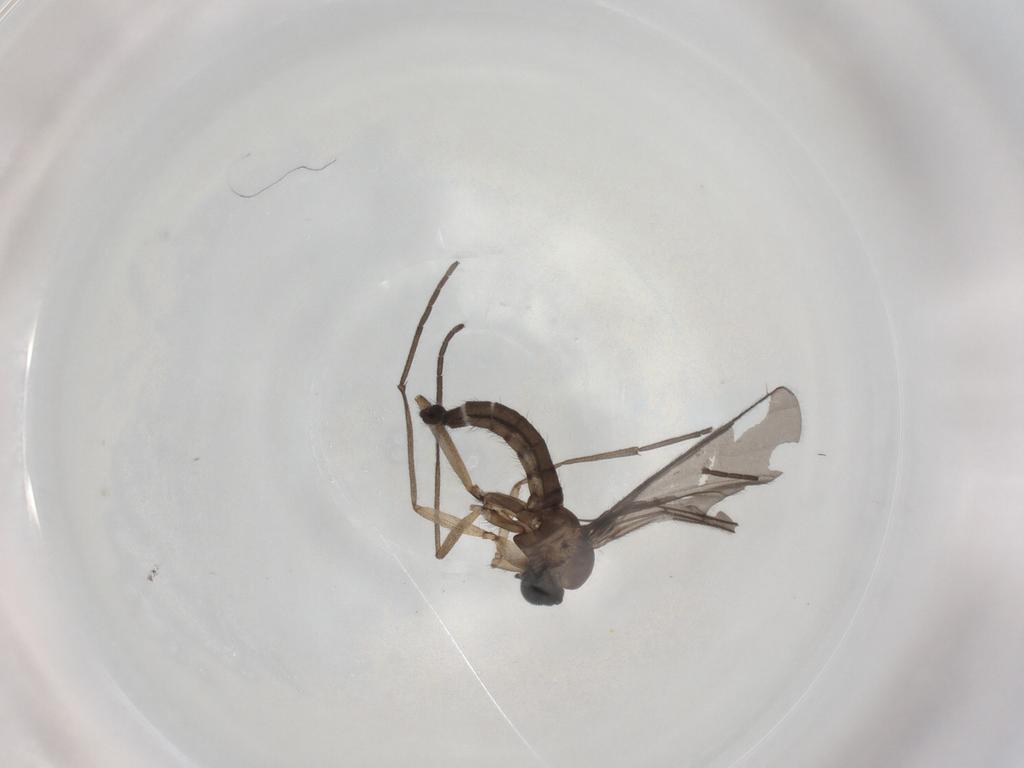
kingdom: Animalia
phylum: Arthropoda
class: Insecta
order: Diptera
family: Sciaridae
